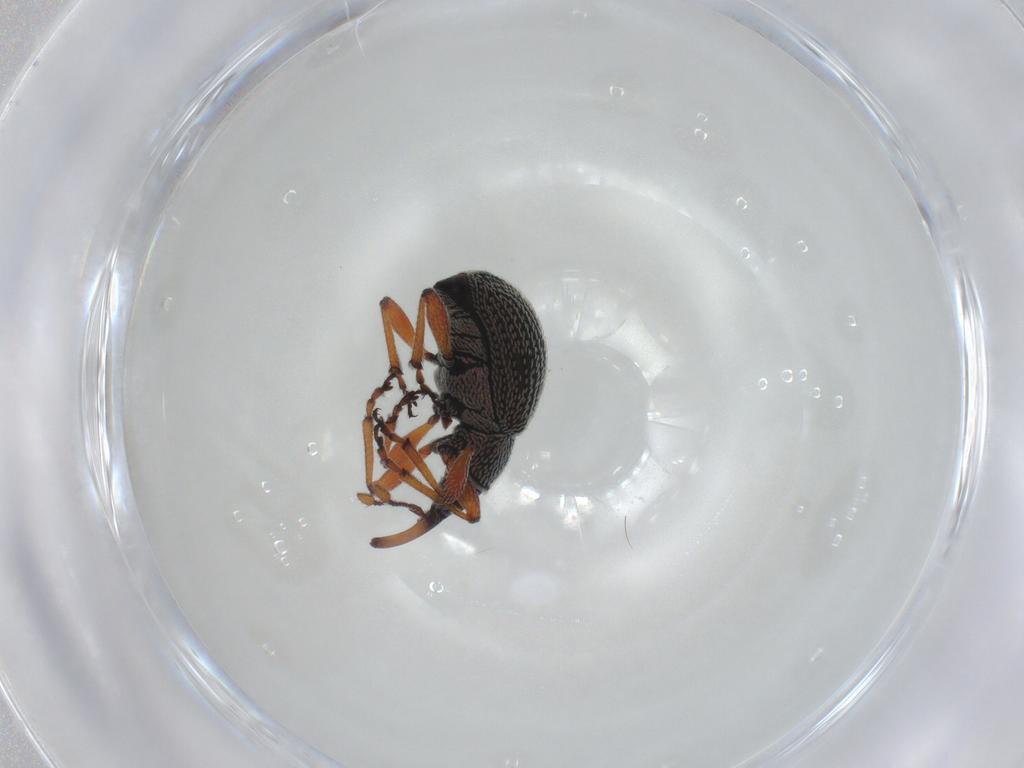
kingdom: Animalia
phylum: Arthropoda
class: Insecta
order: Coleoptera
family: Brentidae
